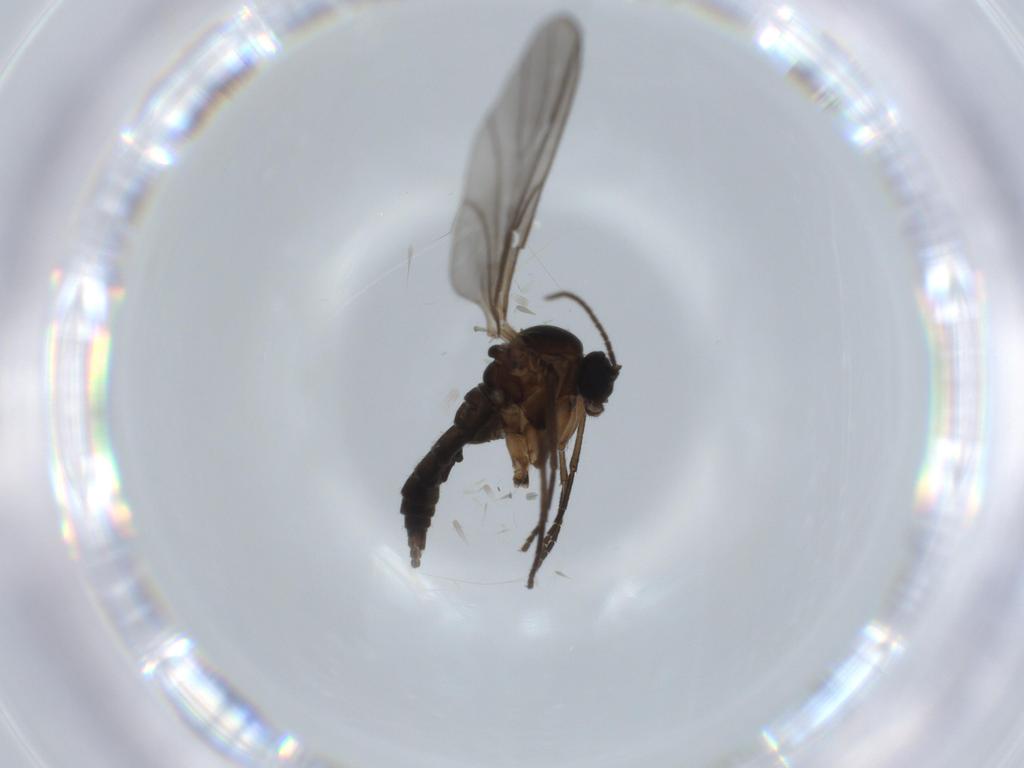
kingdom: Animalia
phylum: Arthropoda
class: Insecta
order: Diptera
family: Sciaridae
